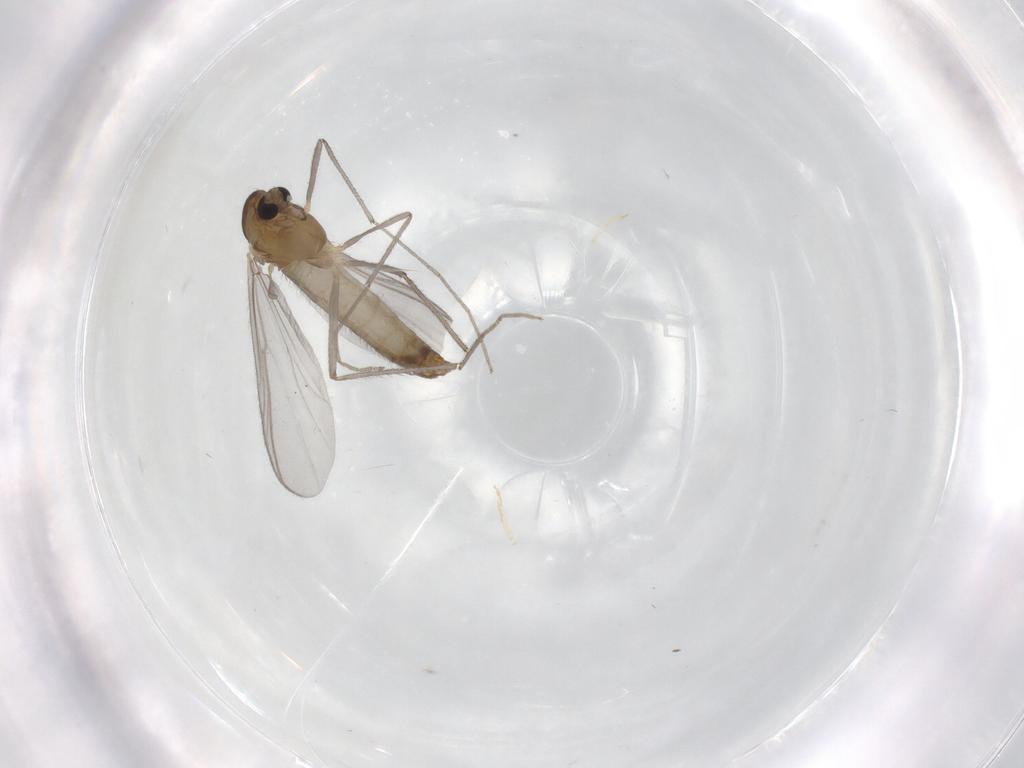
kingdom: Animalia
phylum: Arthropoda
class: Insecta
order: Diptera
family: Chironomidae
